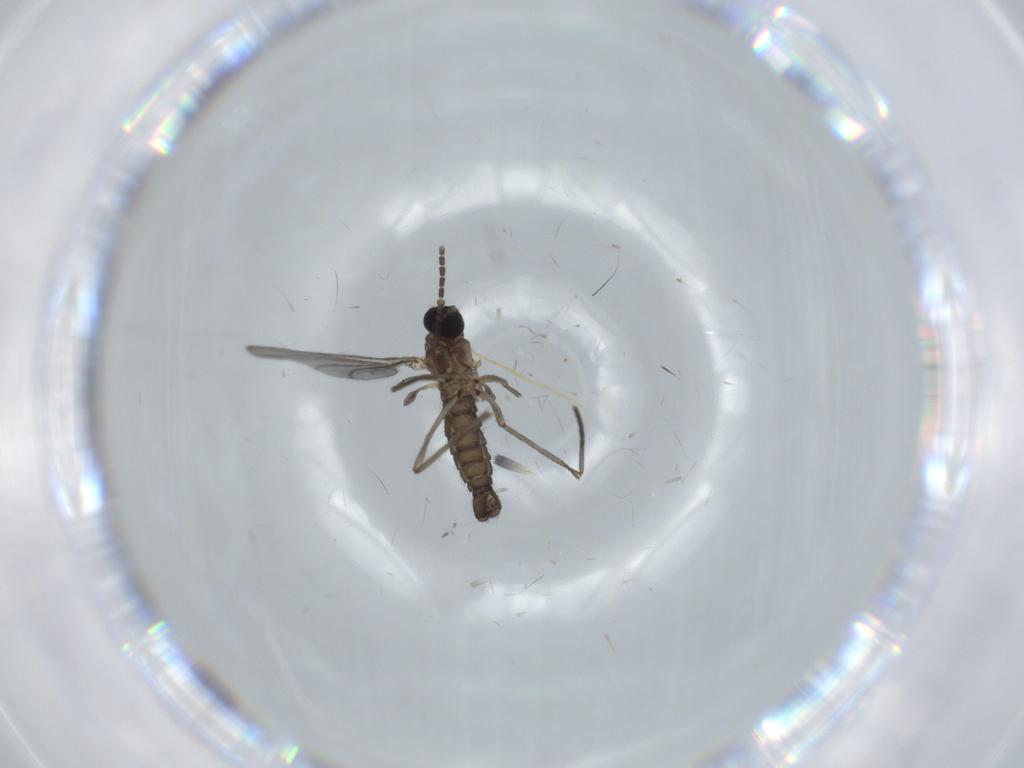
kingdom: Animalia
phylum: Arthropoda
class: Insecta
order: Diptera
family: Sciaridae
